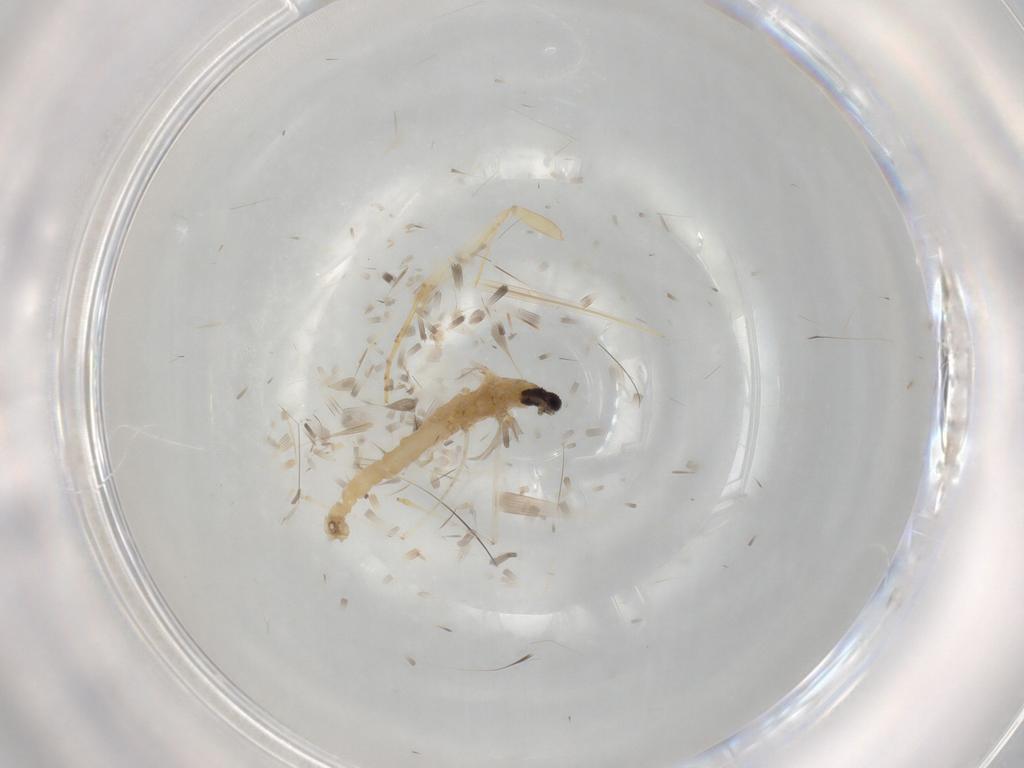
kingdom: Animalia
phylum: Arthropoda
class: Insecta
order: Diptera
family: Cecidomyiidae
